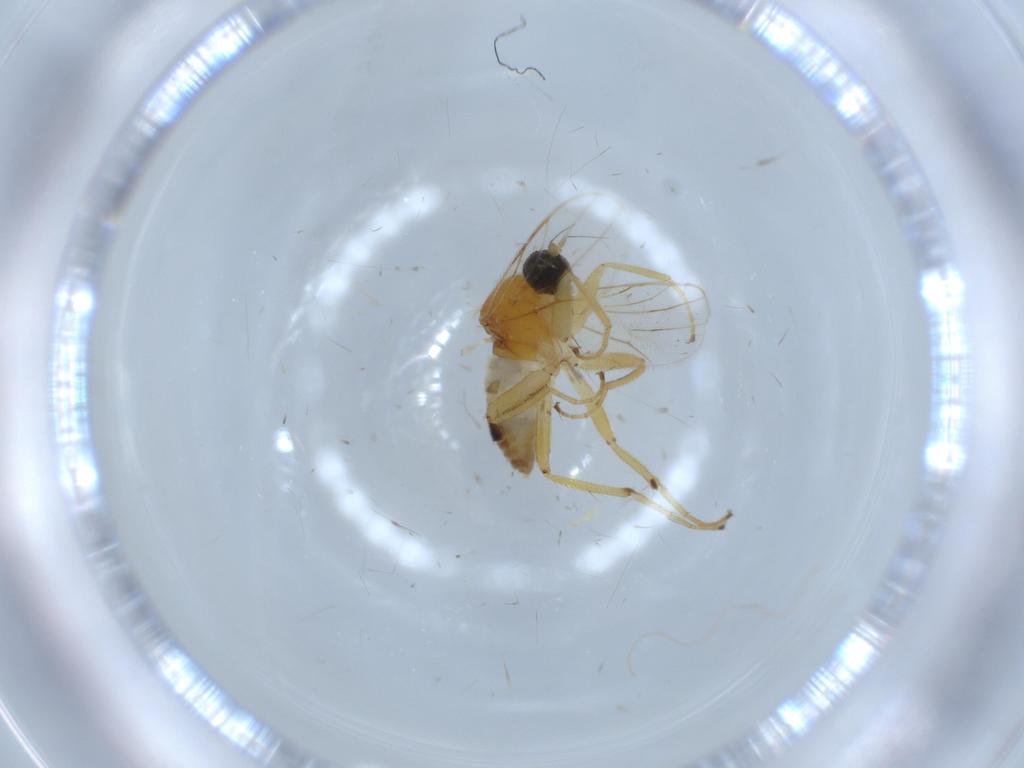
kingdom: Animalia
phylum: Arthropoda
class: Insecta
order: Diptera
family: Hybotidae
